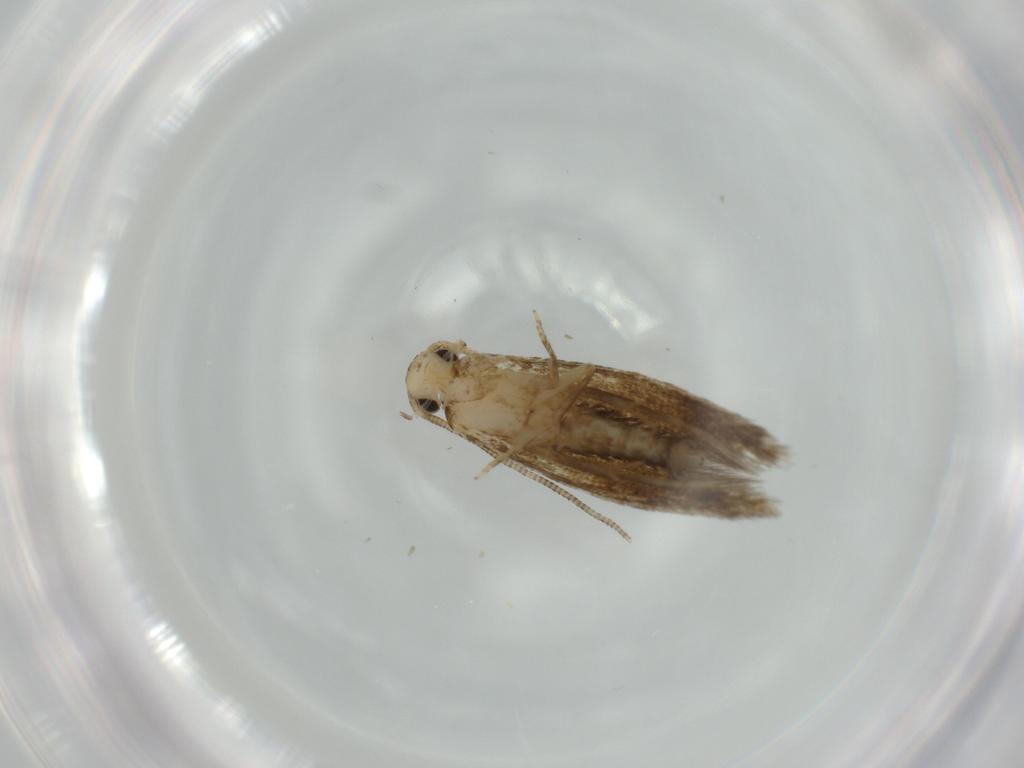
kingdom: Animalia
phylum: Arthropoda
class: Insecta
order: Lepidoptera
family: Tineidae
